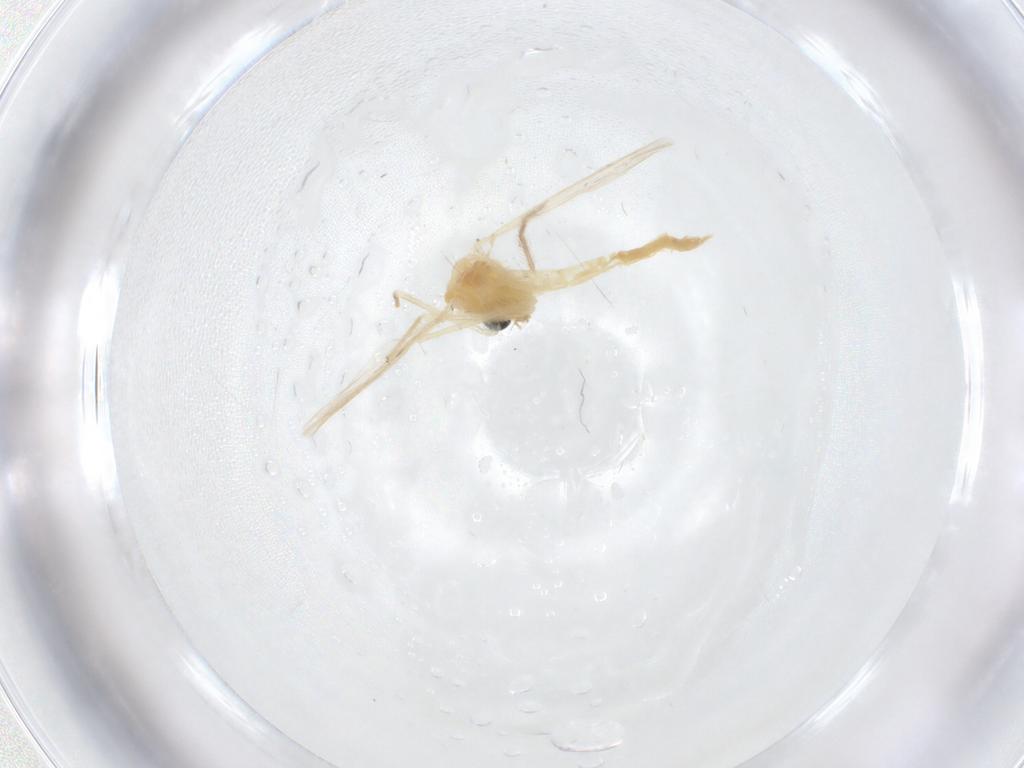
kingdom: Animalia
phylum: Arthropoda
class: Insecta
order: Diptera
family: Chironomidae
